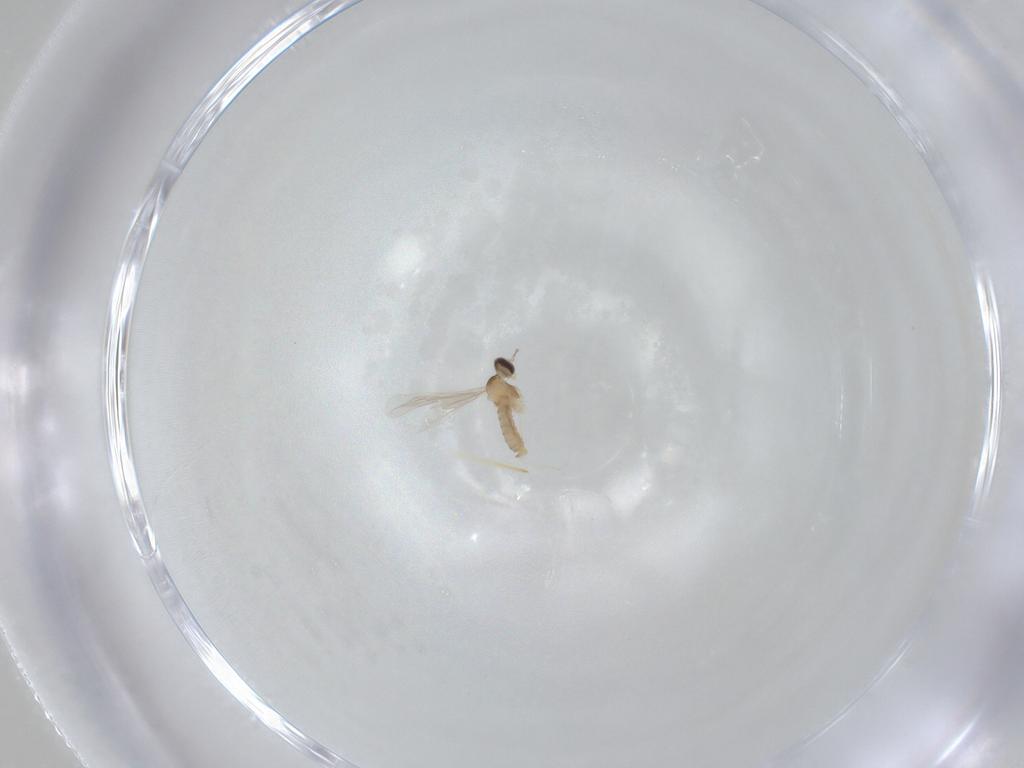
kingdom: Animalia
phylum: Arthropoda
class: Insecta
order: Diptera
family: Cecidomyiidae
